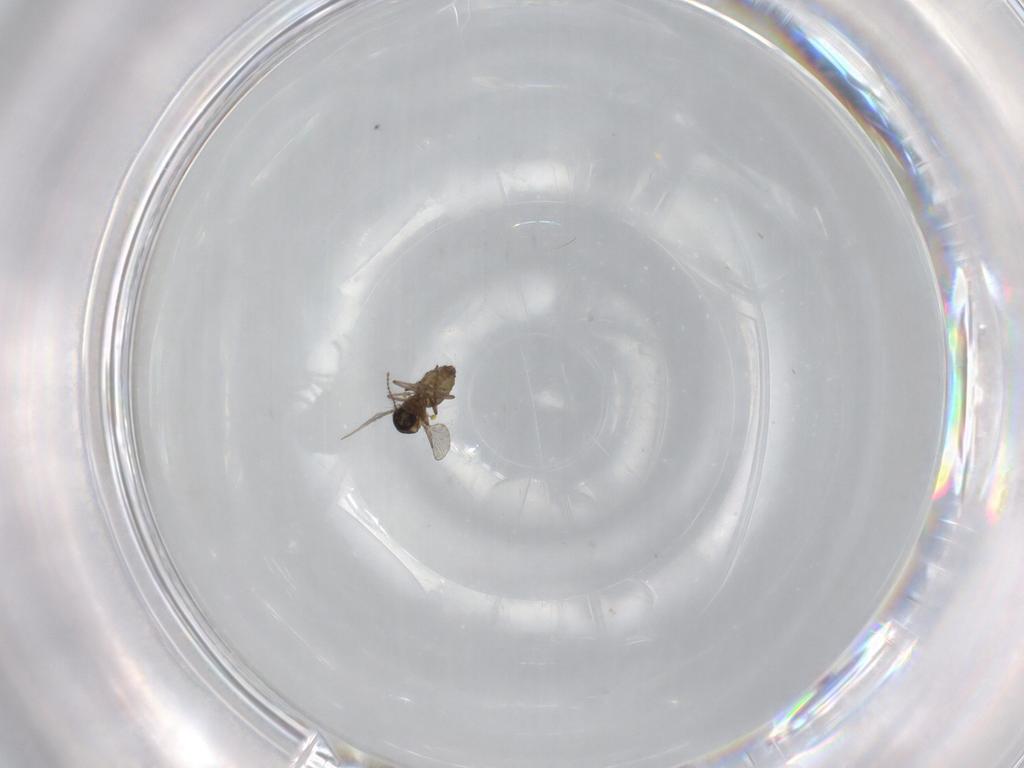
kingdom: Animalia
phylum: Arthropoda
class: Insecta
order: Diptera
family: Ceratopogonidae
